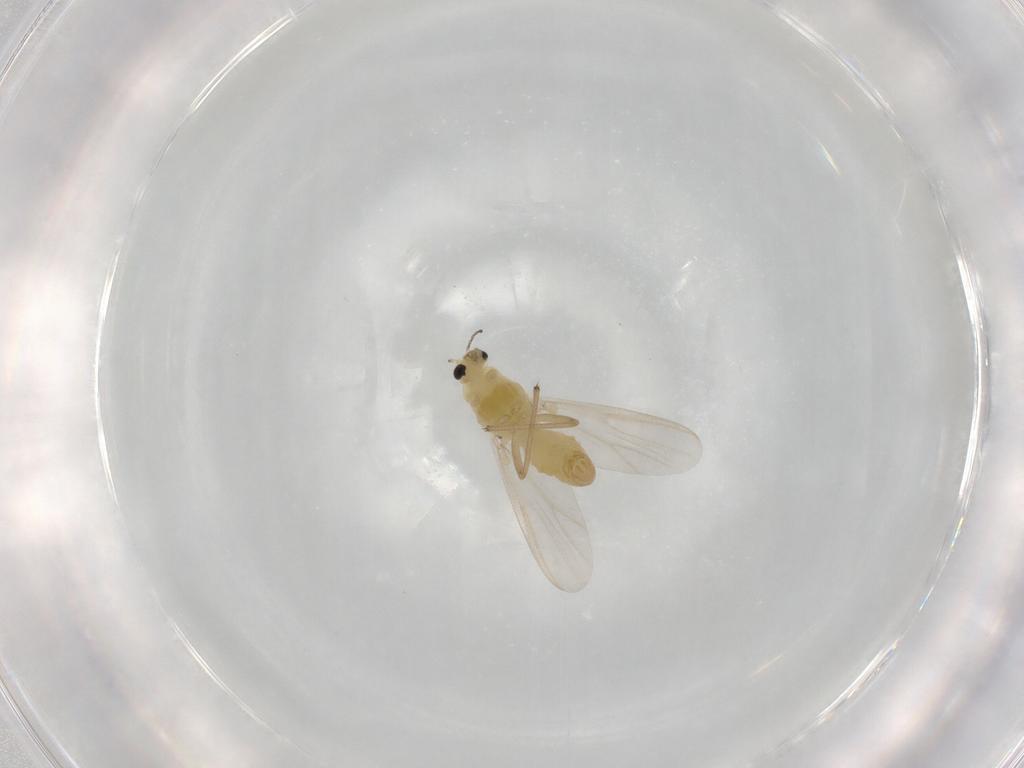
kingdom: Animalia
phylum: Arthropoda
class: Insecta
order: Diptera
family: Chironomidae
